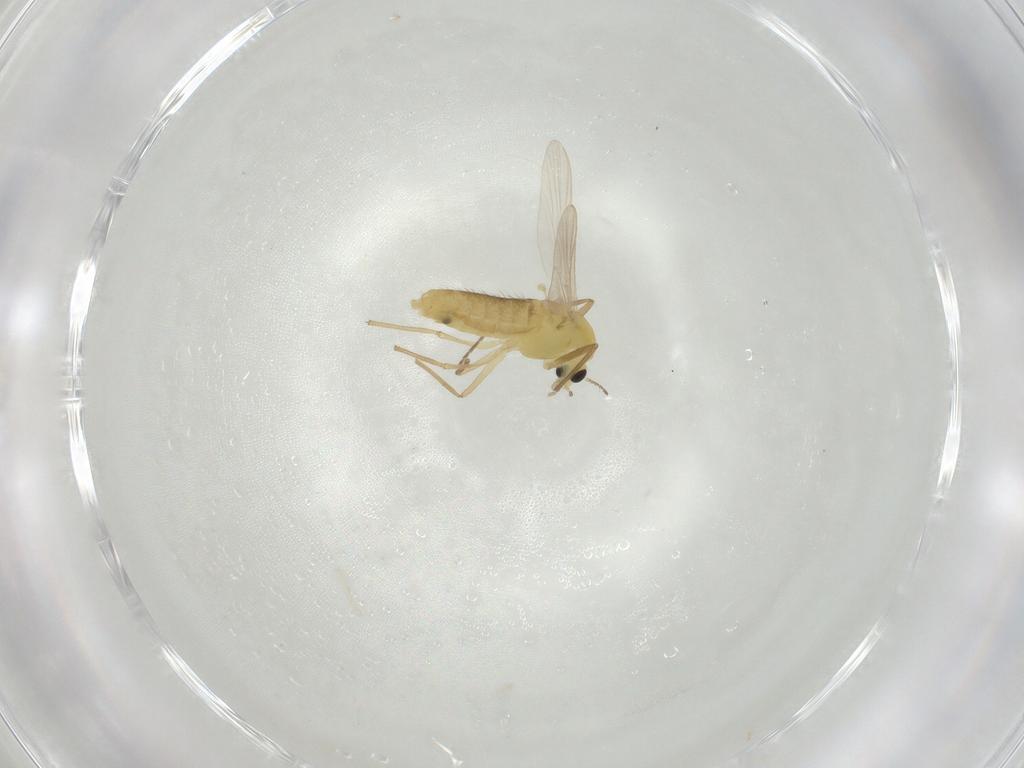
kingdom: Animalia
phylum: Arthropoda
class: Insecta
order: Diptera
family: Chironomidae
